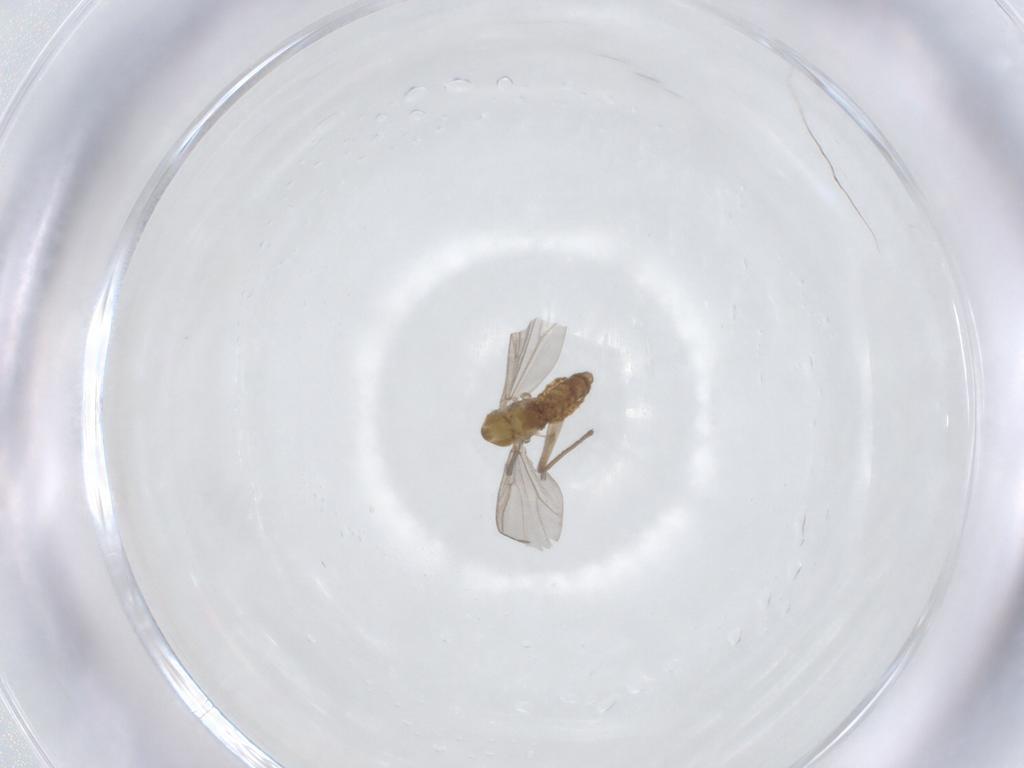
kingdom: Animalia
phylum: Arthropoda
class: Insecta
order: Diptera
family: Chironomidae
